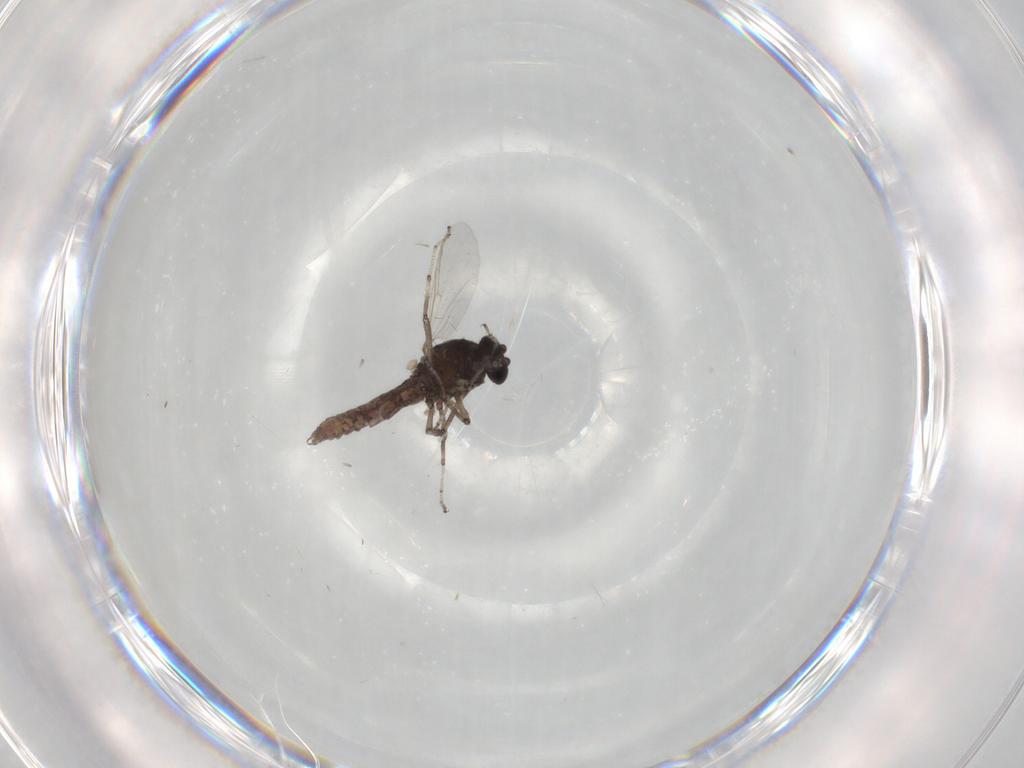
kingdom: Animalia
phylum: Arthropoda
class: Insecta
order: Diptera
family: Cecidomyiidae
